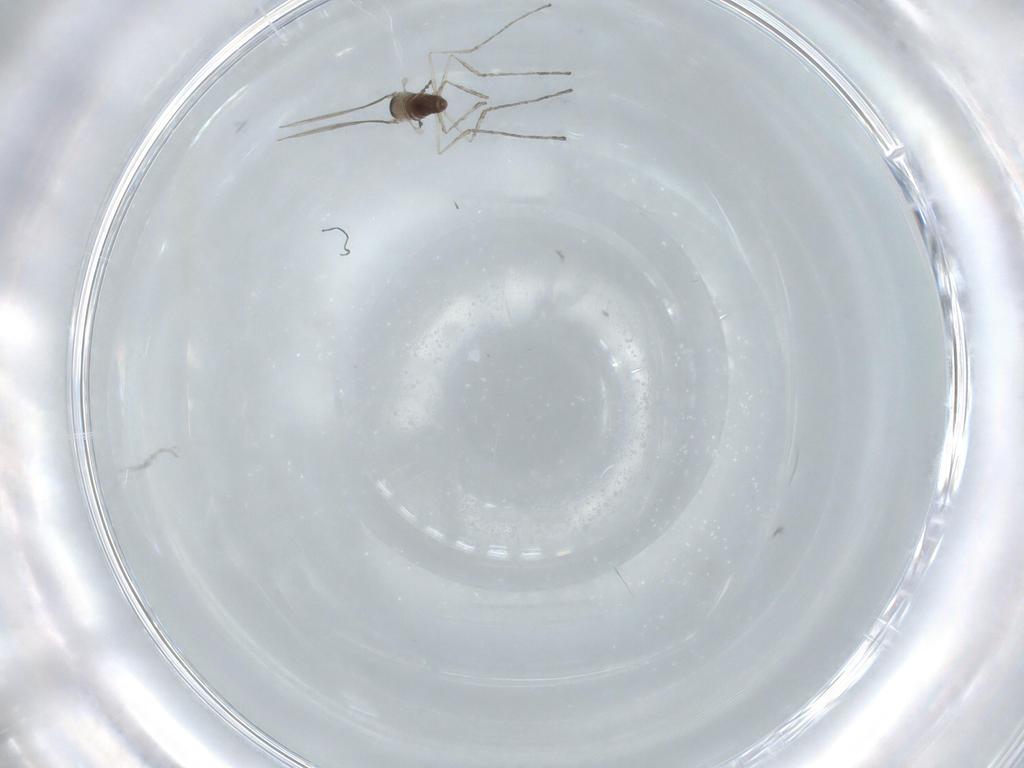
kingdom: Animalia
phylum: Arthropoda
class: Insecta
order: Diptera
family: Cecidomyiidae
